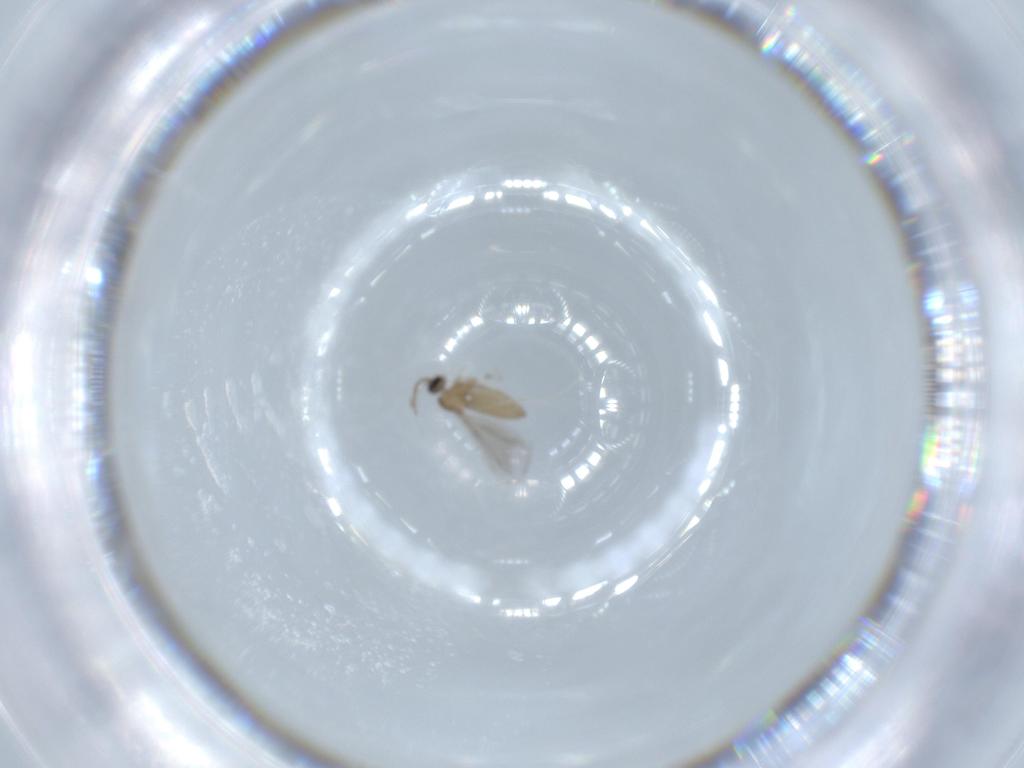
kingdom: Animalia
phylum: Arthropoda
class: Insecta
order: Diptera
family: Cecidomyiidae
